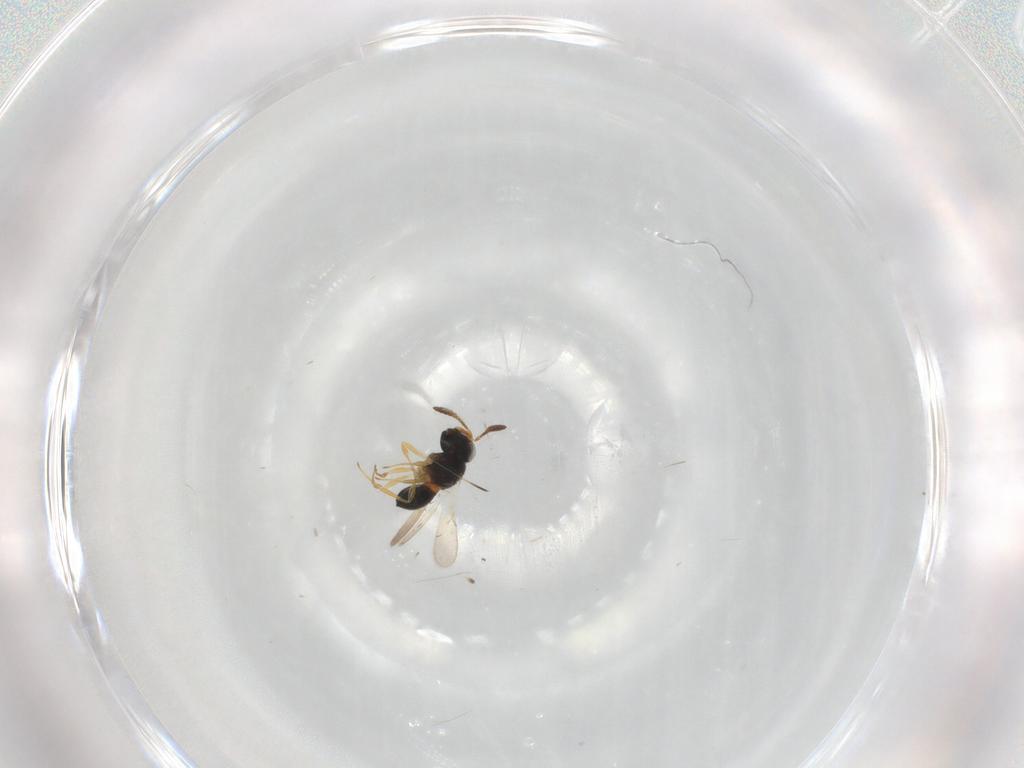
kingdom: Animalia
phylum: Arthropoda
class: Insecta
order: Hymenoptera
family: Scelionidae
